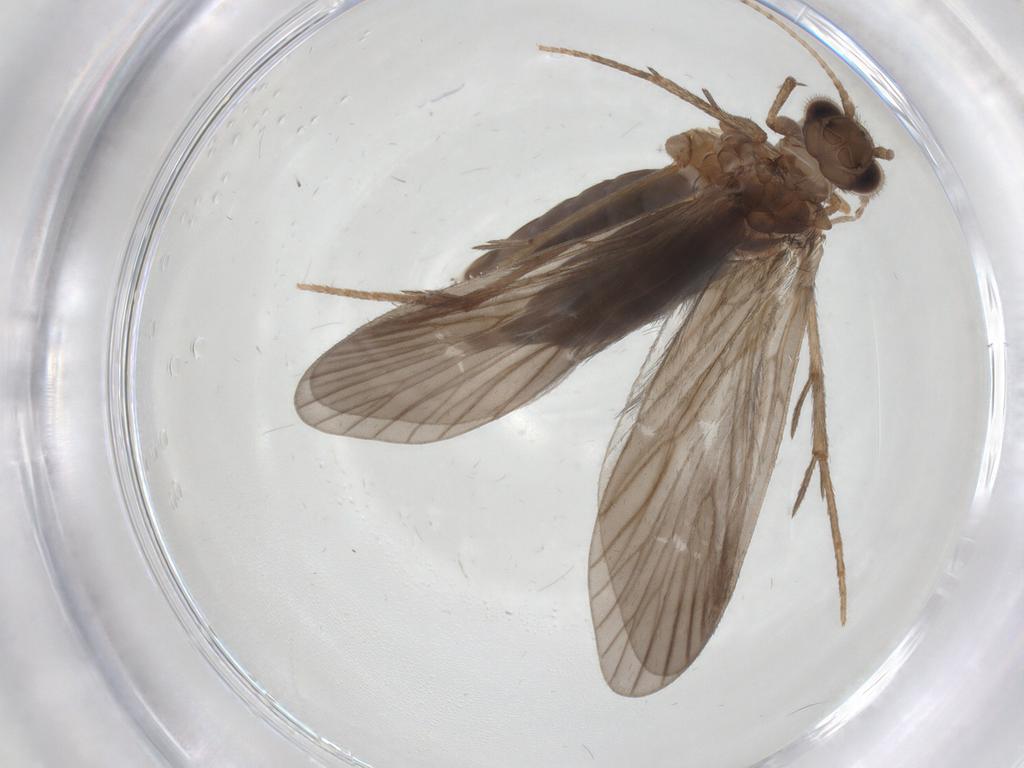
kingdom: Animalia
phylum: Arthropoda
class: Insecta
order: Trichoptera
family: Philopotamidae
